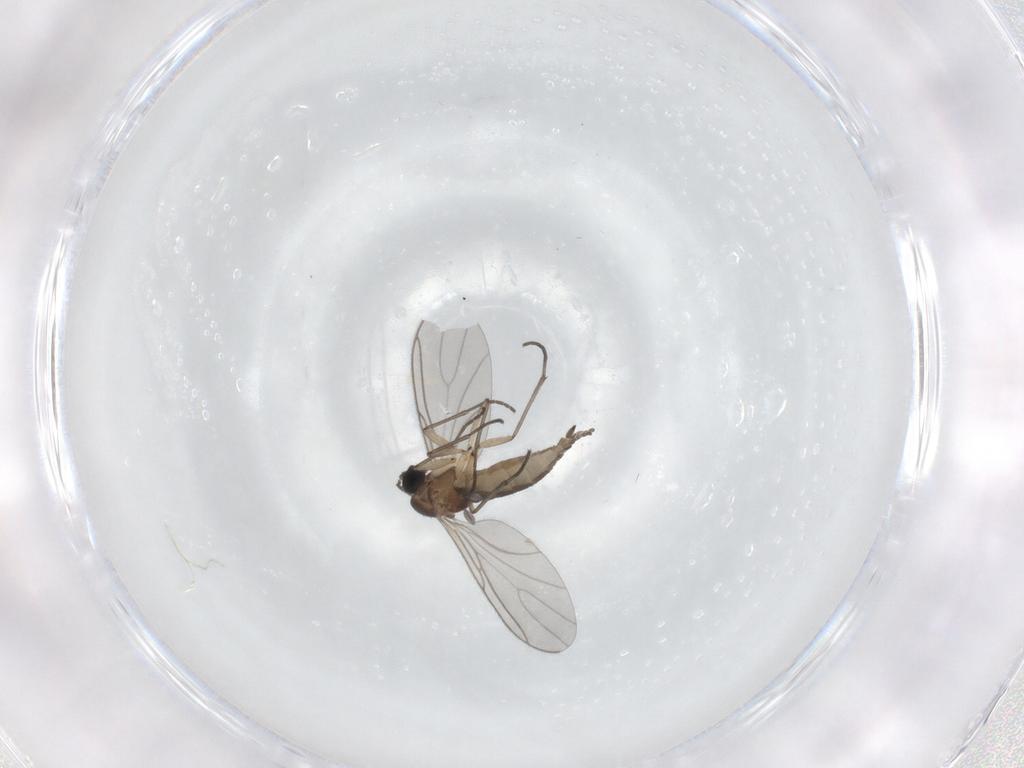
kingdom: Animalia
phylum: Arthropoda
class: Insecta
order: Diptera
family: Sciaridae
